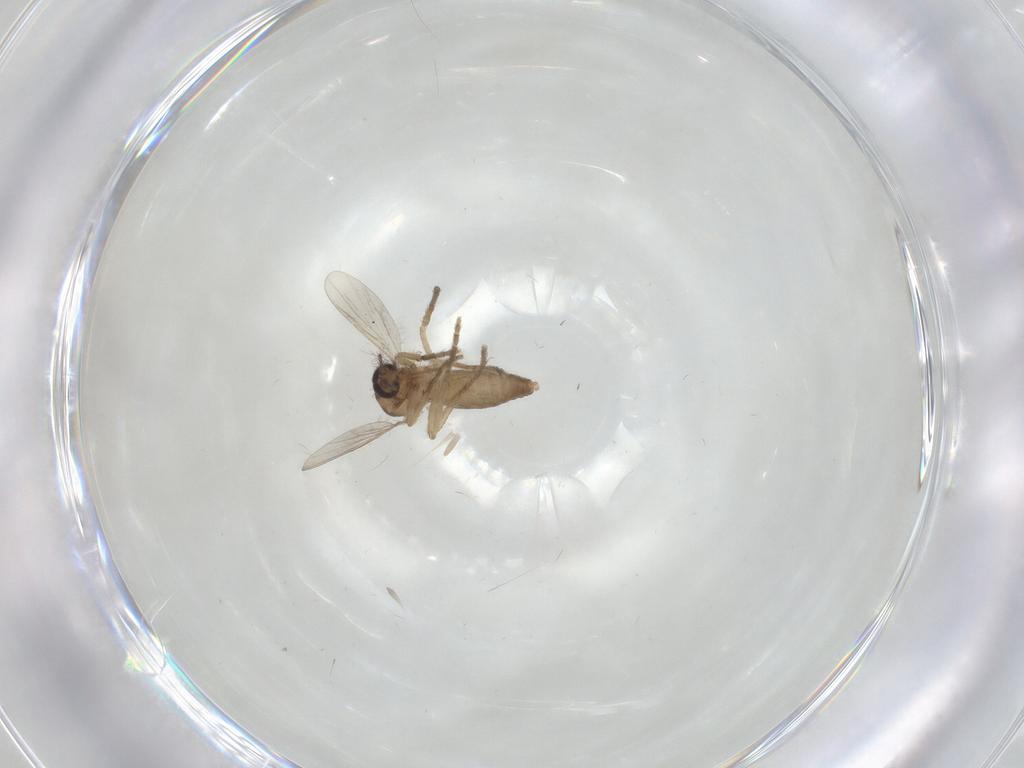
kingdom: Animalia
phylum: Arthropoda
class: Insecta
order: Diptera
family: Ceratopogonidae
